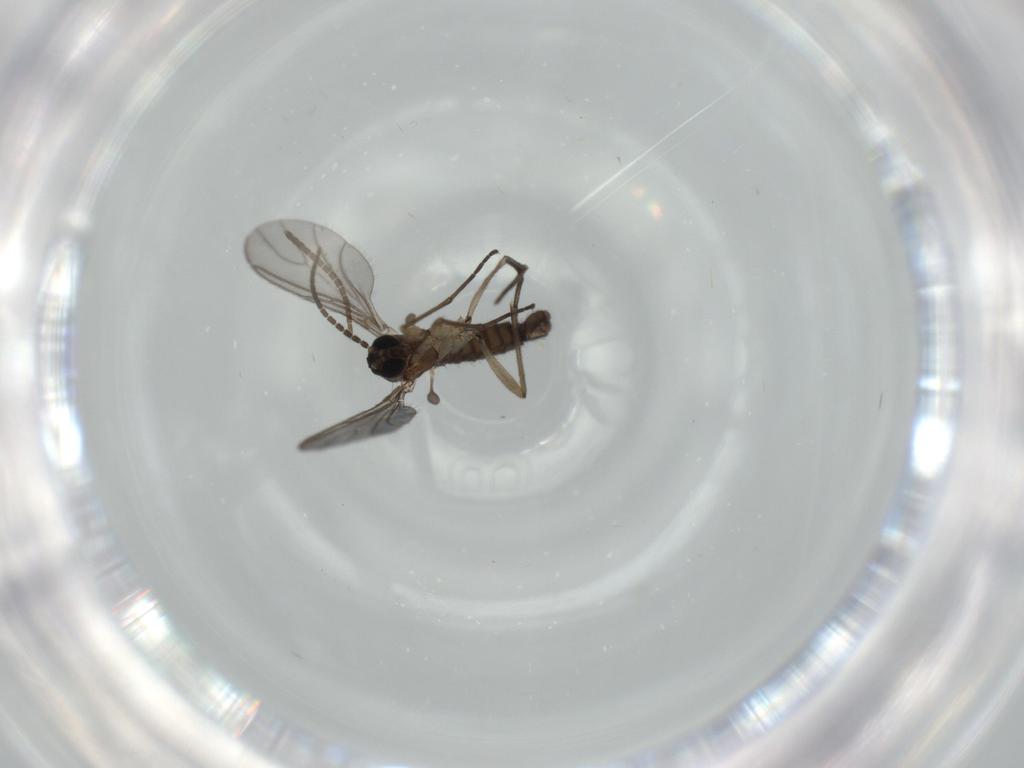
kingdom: Animalia
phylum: Arthropoda
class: Insecta
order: Diptera
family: Sciaridae
